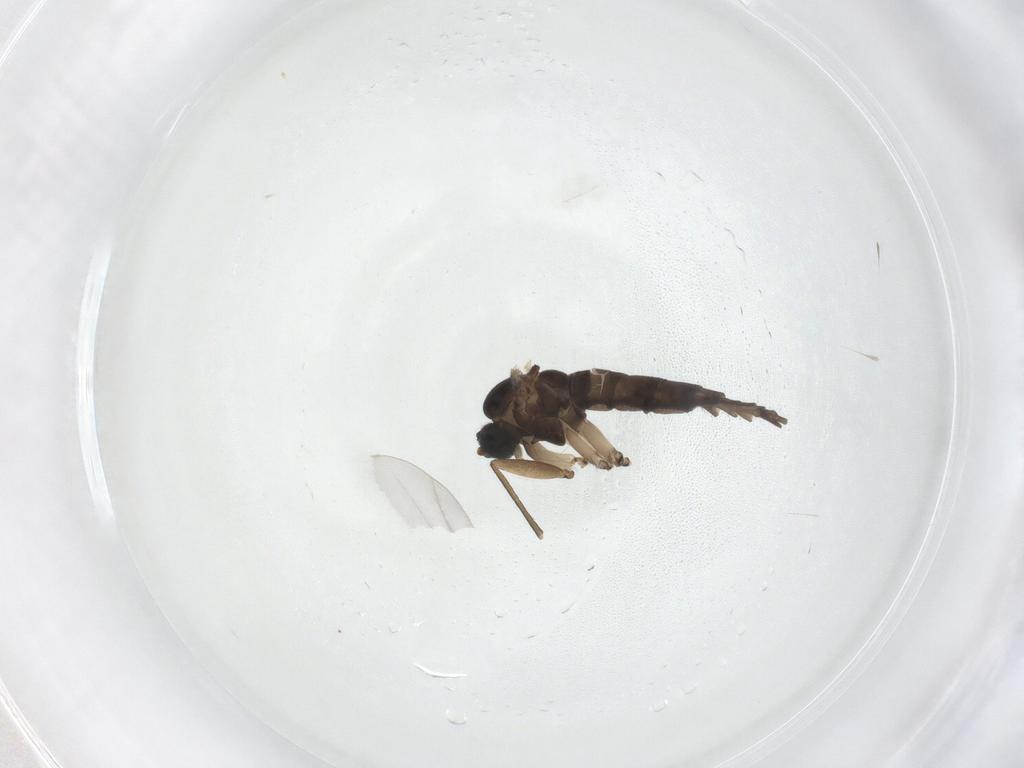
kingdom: Animalia
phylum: Arthropoda
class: Insecta
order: Diptera
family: Sciaridae
